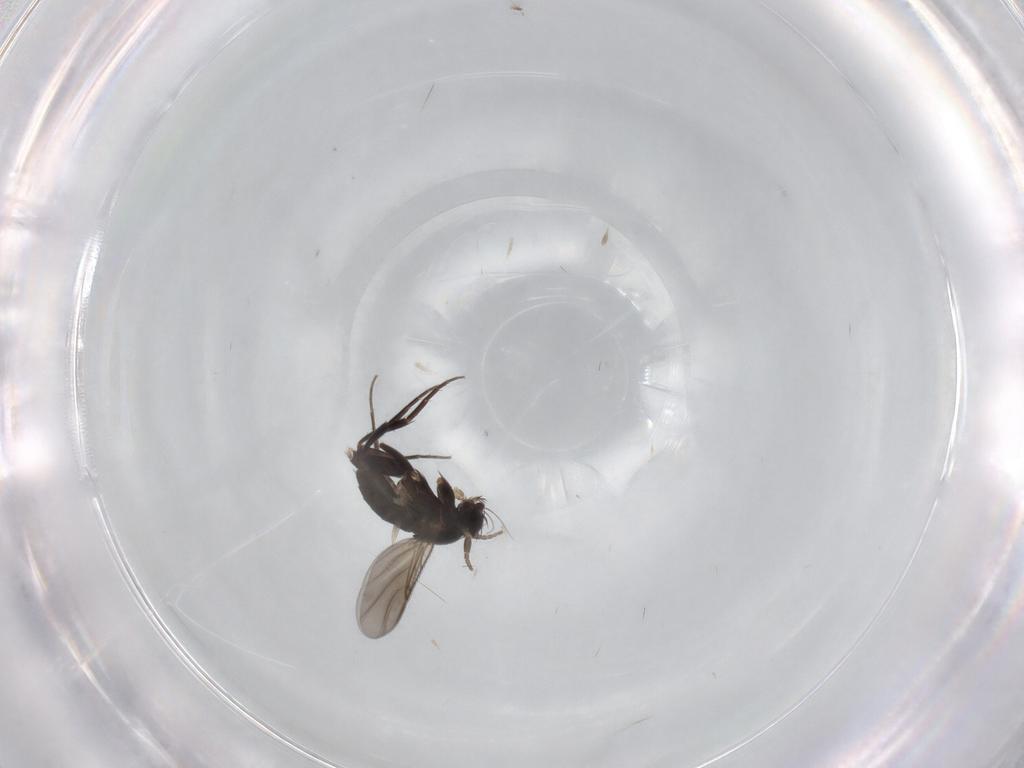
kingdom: Animalia
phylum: Arthropoda
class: Insecta
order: Diptera
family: Phoridae
